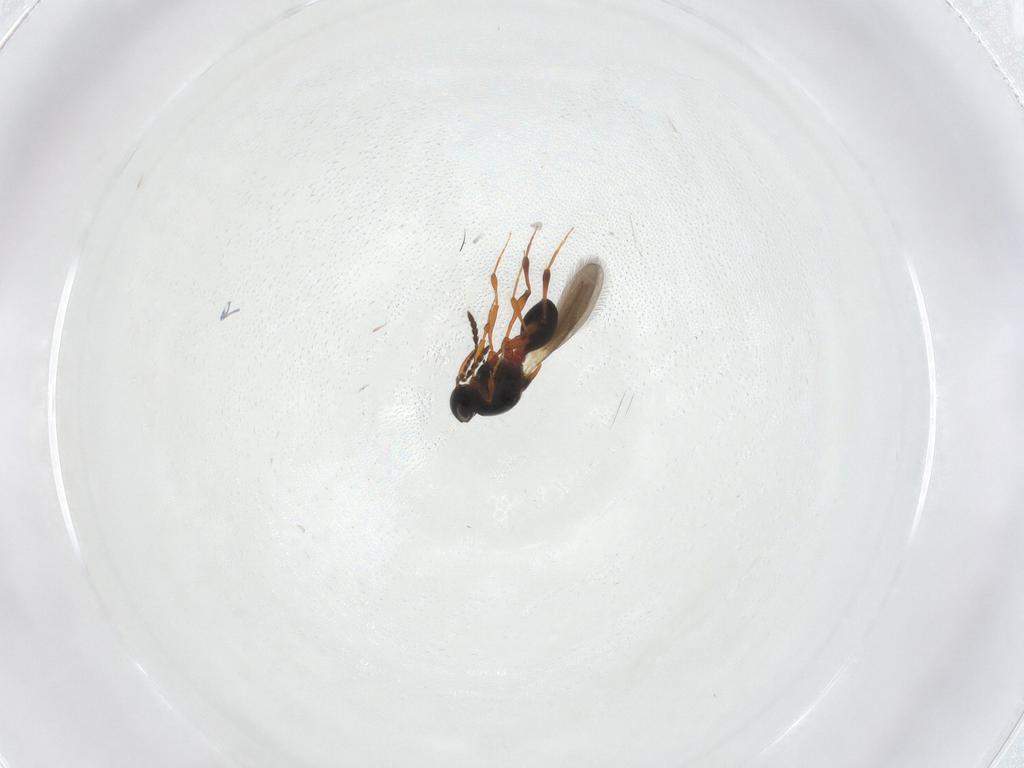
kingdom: Animalia
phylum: Arthropoda
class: Insecta
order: Hymenoptera
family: Platygastridae
